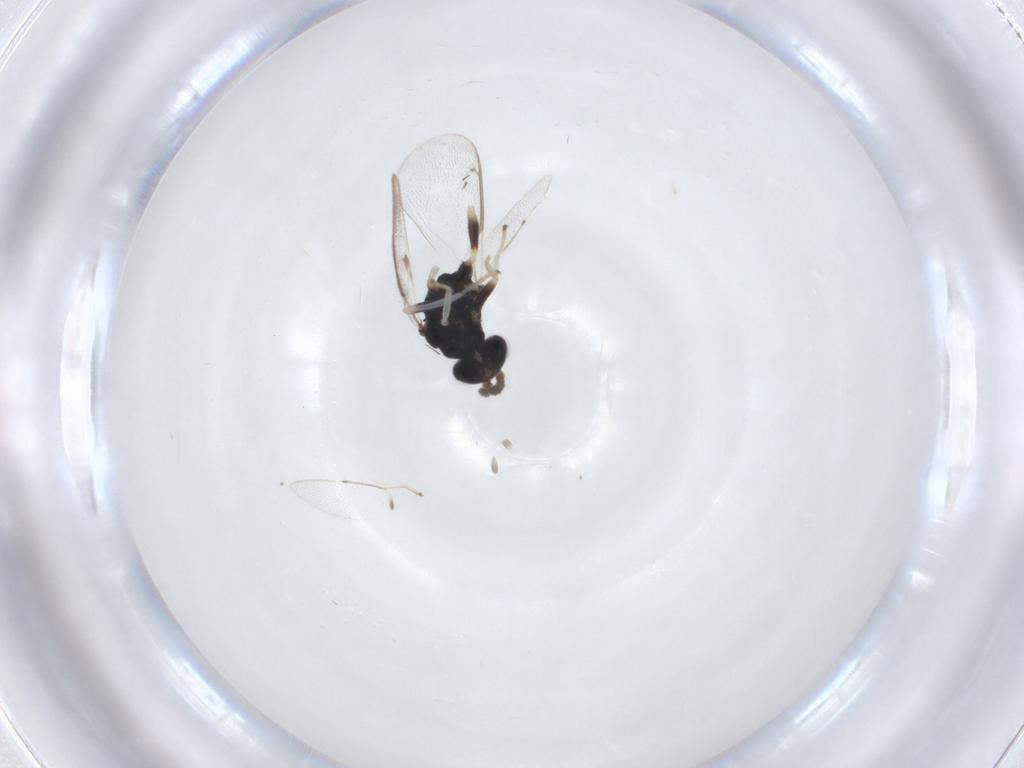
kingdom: Animalia
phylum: Arthropoda
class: Insecta
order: Hymenoptera
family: Eulophidae
